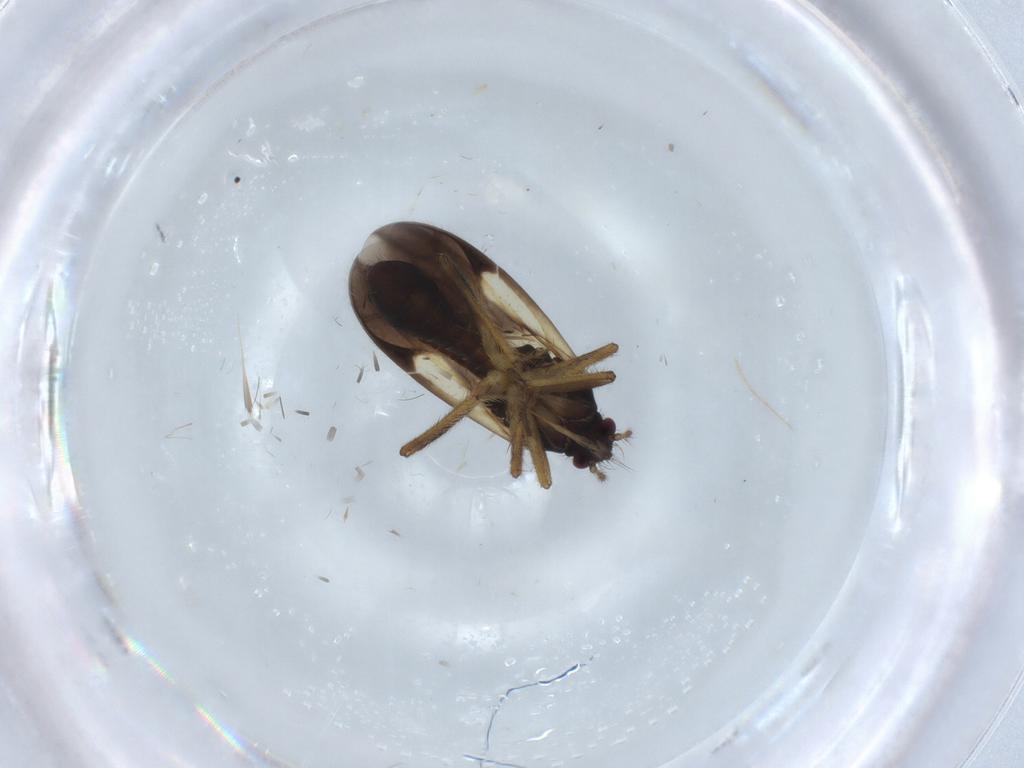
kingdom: Animalia
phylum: Arthropoda
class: Insecta
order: Hemiptera
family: Ceratocombidae
